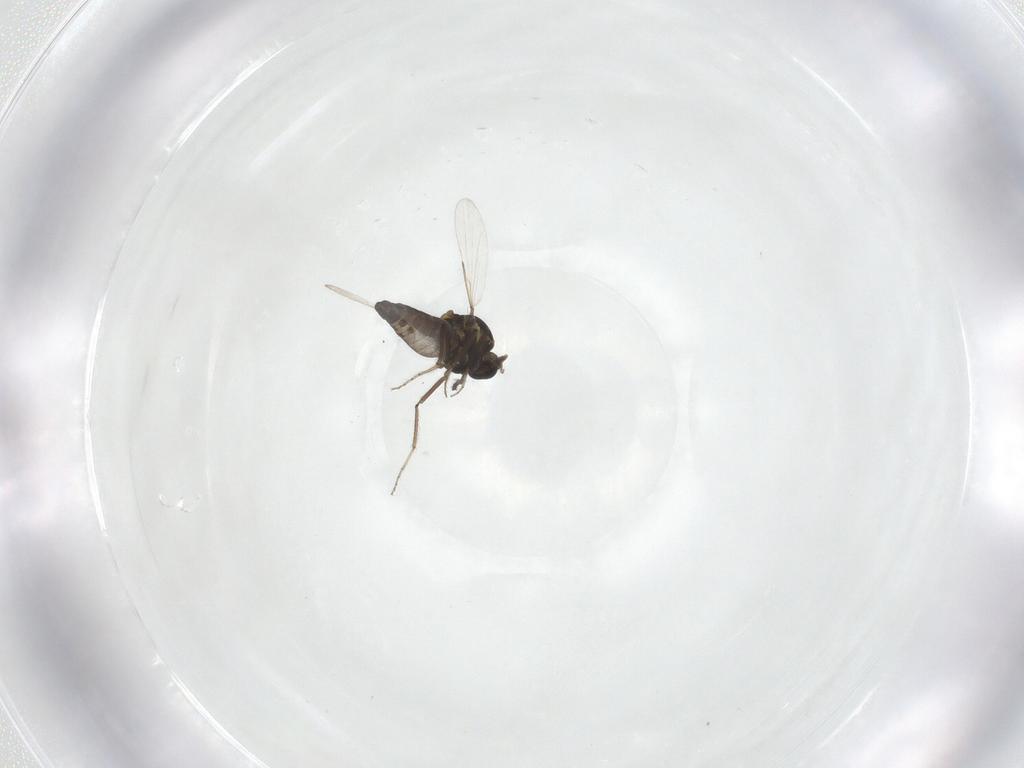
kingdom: Animalia
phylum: Arthropoda
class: Insecta
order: Diptera
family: Ceratopogonidae
